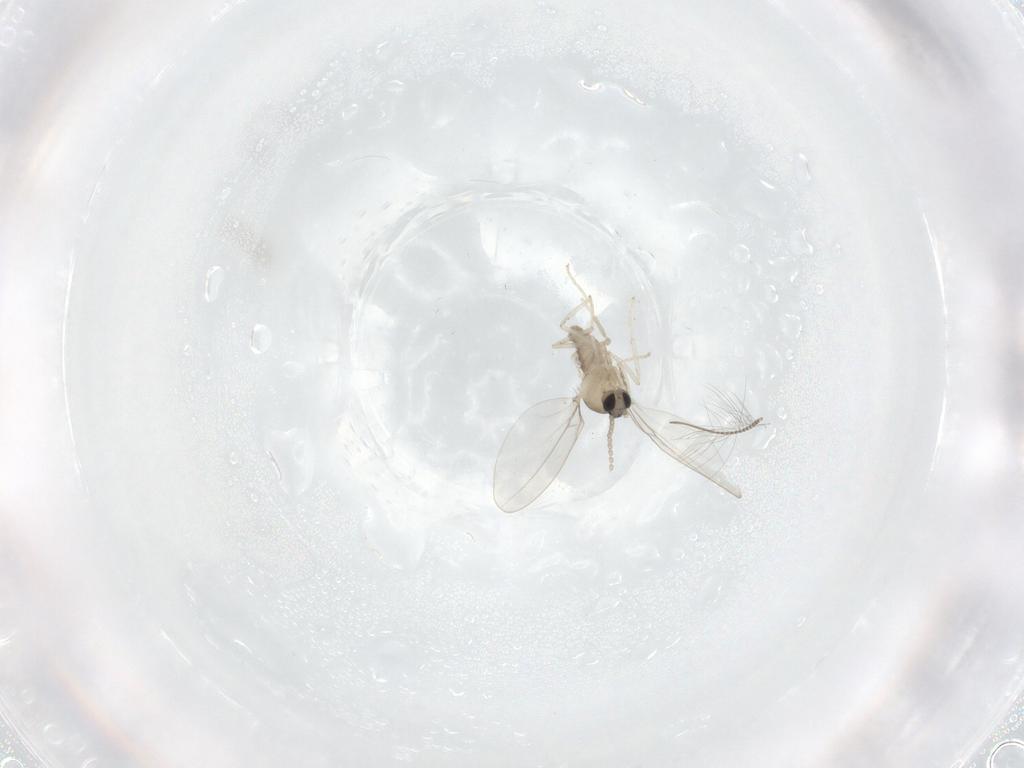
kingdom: Animalia
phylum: Arthropoda
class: Insecta
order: Diptera
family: Cecidomyiidae
